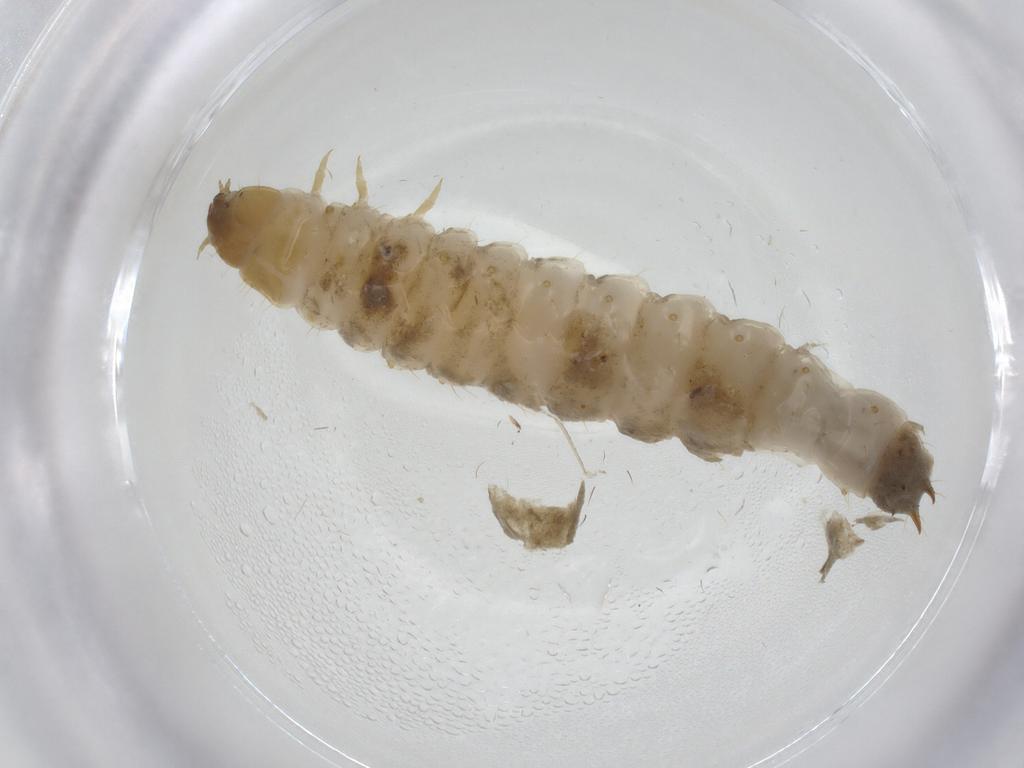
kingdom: Animalia
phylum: Arthropoda
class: Insecta
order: Coleoptera
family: Nitidulidae
